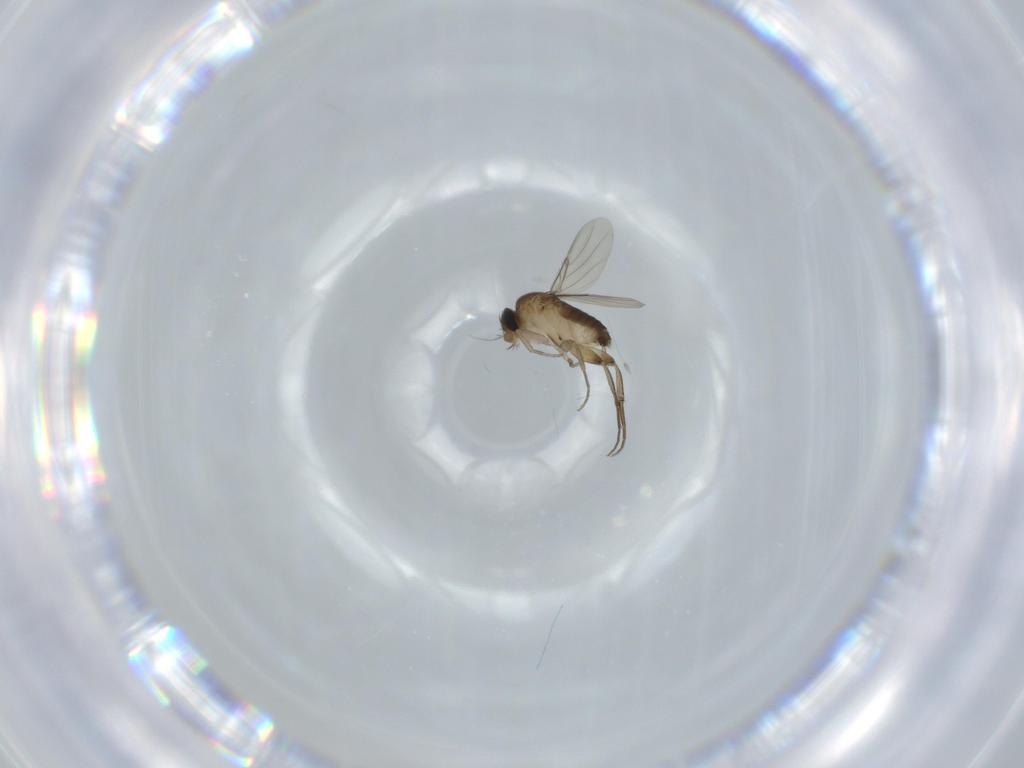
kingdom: Animalia
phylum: Arthropoda
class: Insecta
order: Diptera
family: Phoridae
